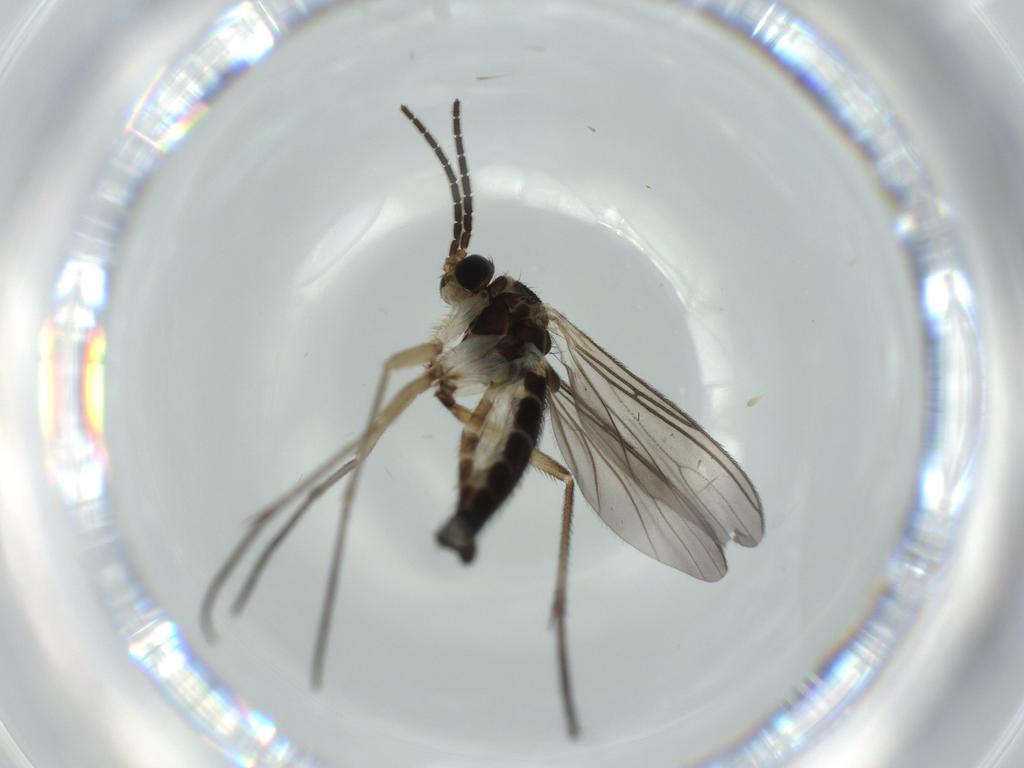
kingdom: Animalia
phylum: Arthropoda
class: Insecta
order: Diptera
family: Sciaridae
